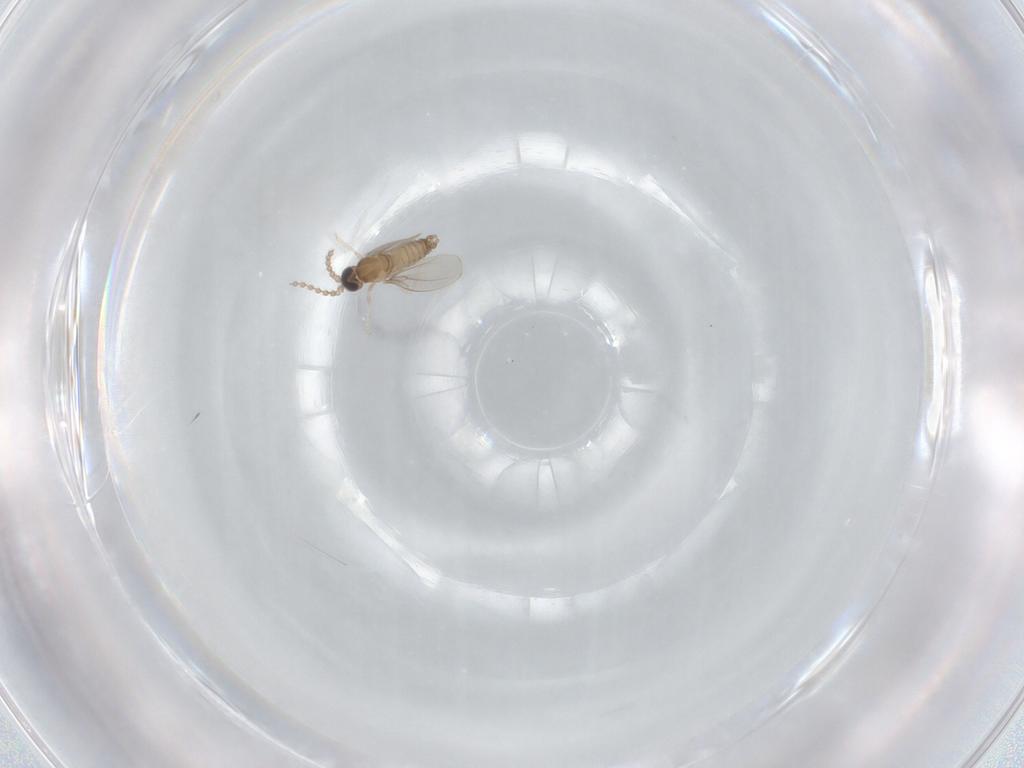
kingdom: Animalia
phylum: Arthropoda
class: Insecta
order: Diptera
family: Cecidomyiidae
